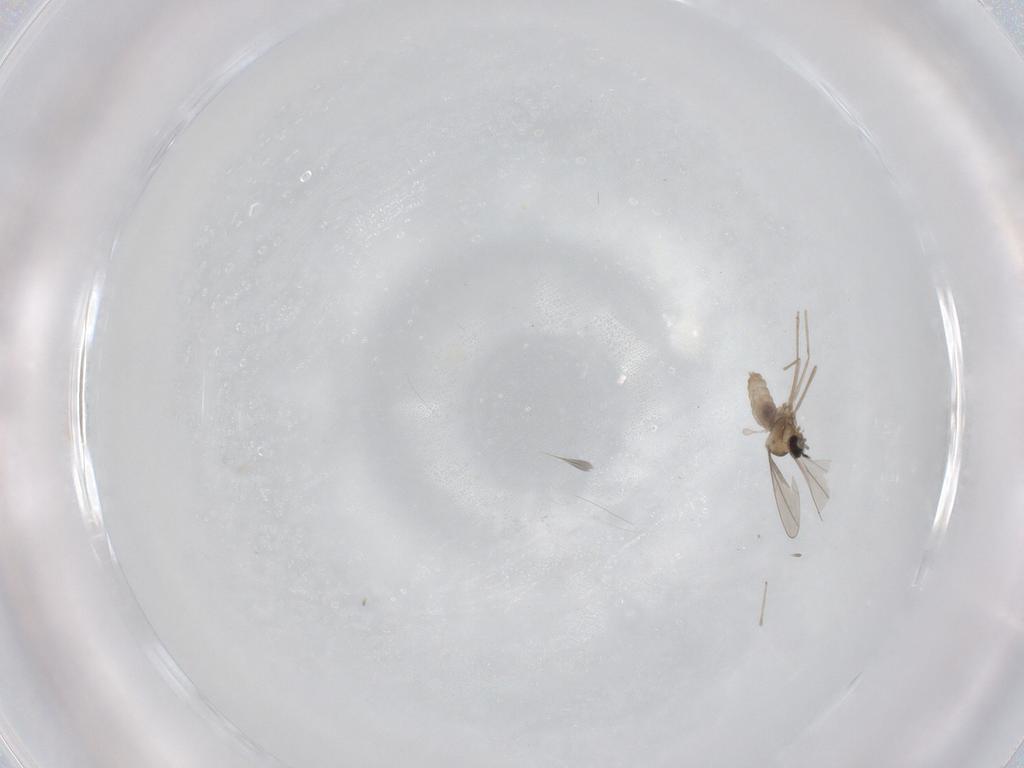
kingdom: Animalia
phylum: Arthropoda
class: Insecta
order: Diptera
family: Cecidomyiidae
